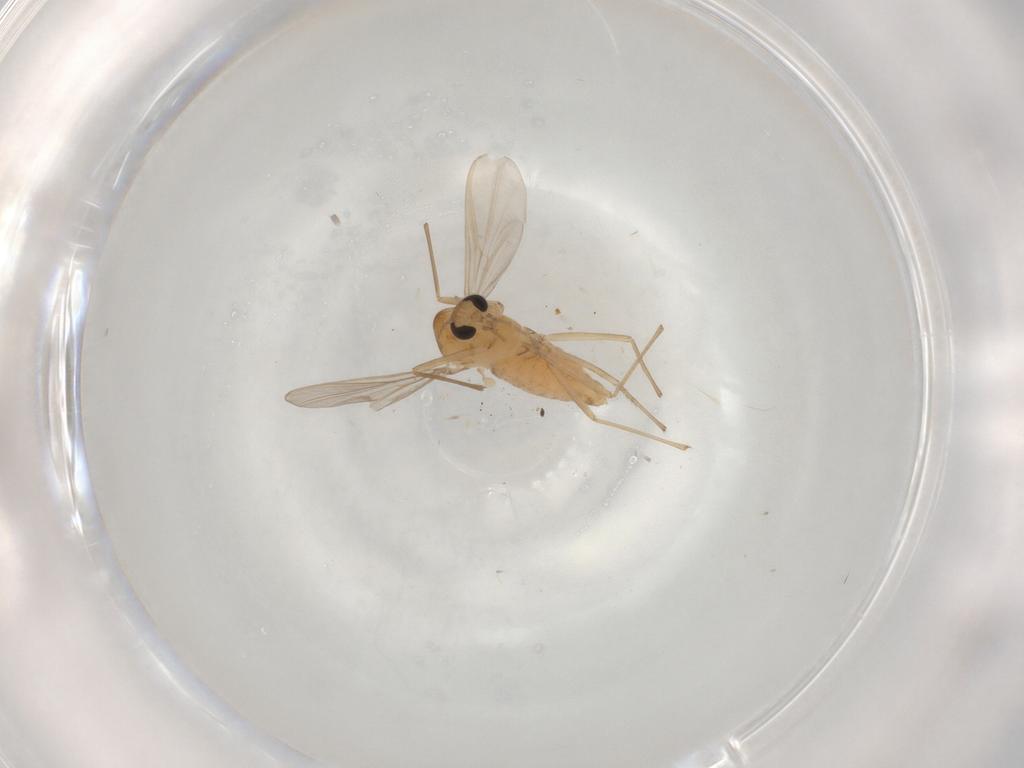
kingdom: Animalia
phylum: Arthropoda
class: Insecta
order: Diptera
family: Chironomidae
